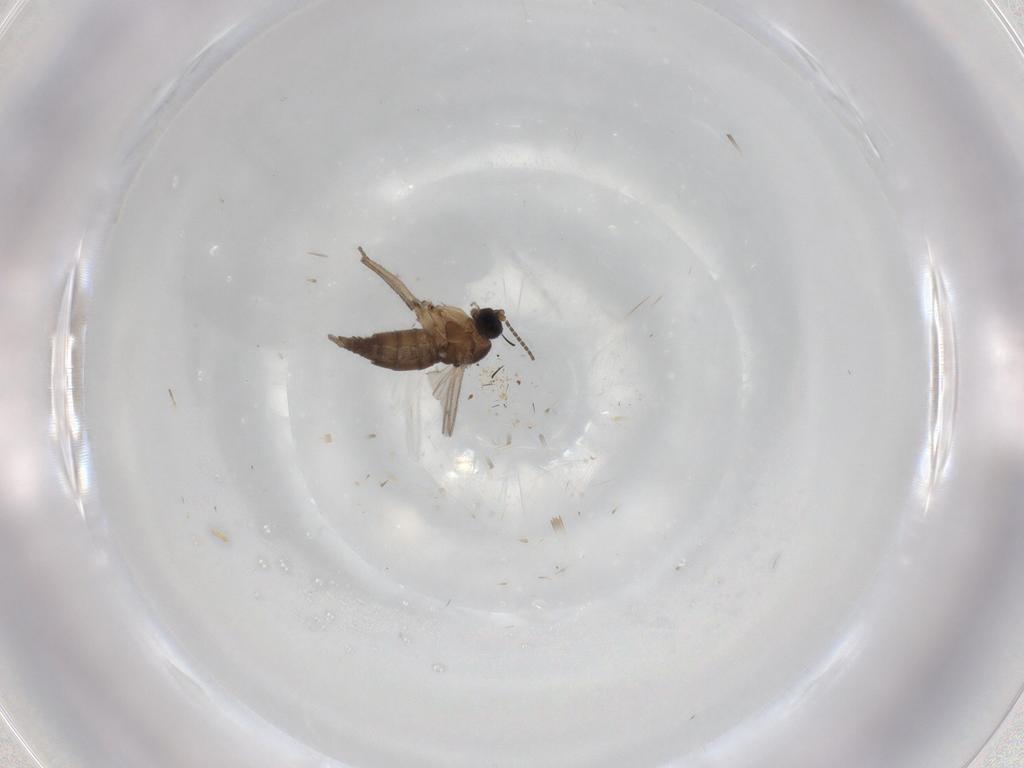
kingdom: Animalia
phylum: Arthropoda
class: Insecta
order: Diptera
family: Sciaridae
